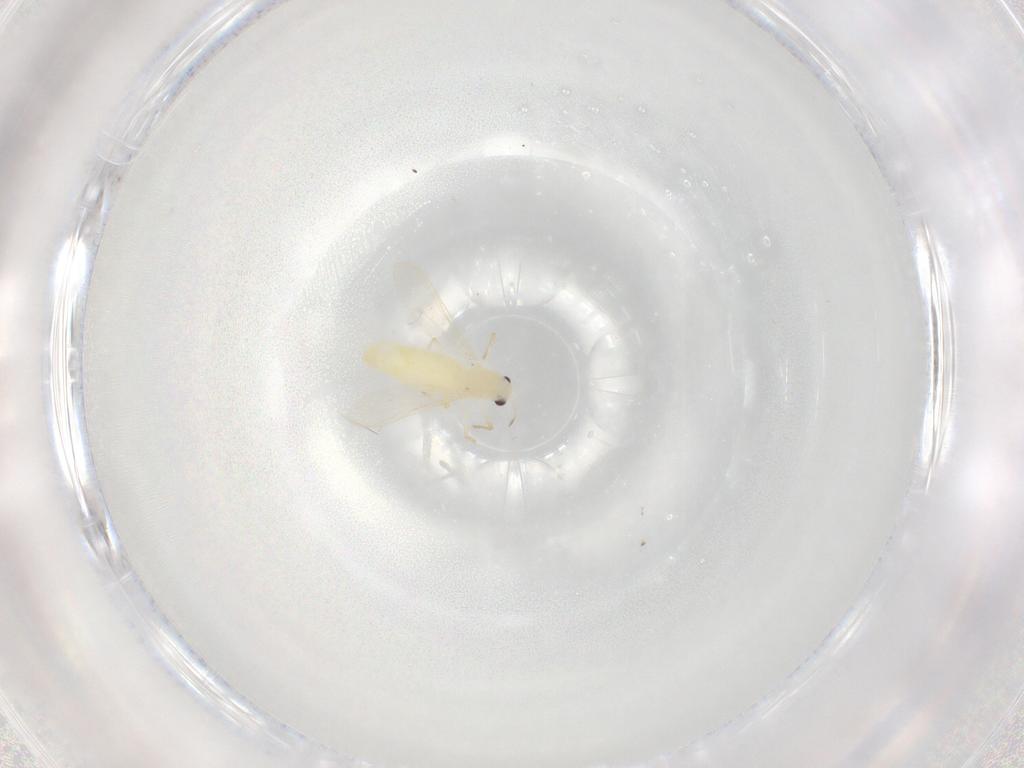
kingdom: Animalia
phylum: Arthropoda
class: Insecta
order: Diptera
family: Chironomidae
